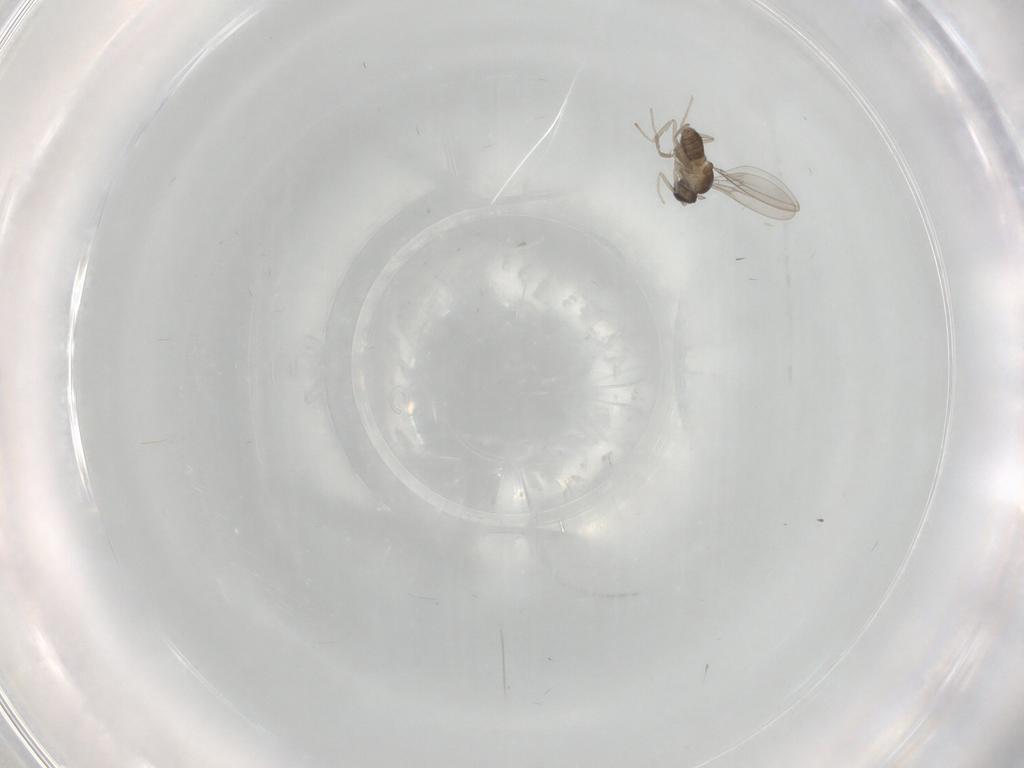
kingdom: Animalia
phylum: Arthropoda
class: Insecta
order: Diptera
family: Cecidomyiidae
